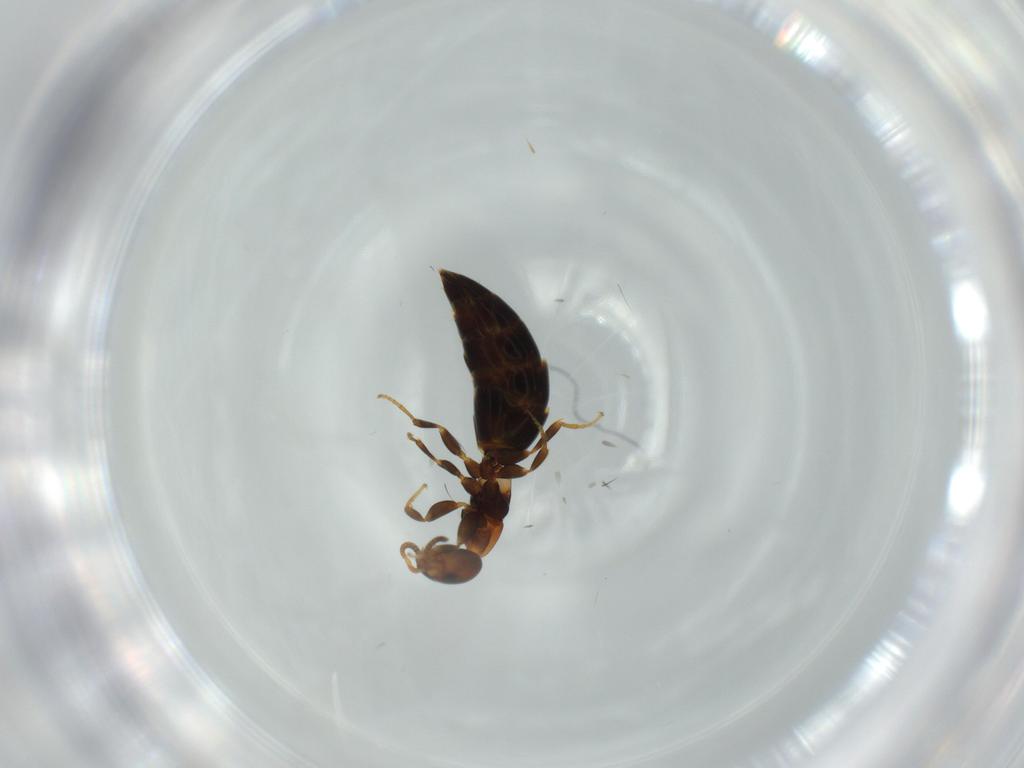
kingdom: Animalia
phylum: Arthropoda
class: Insecta
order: Hymenoptera
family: Bethylidae
